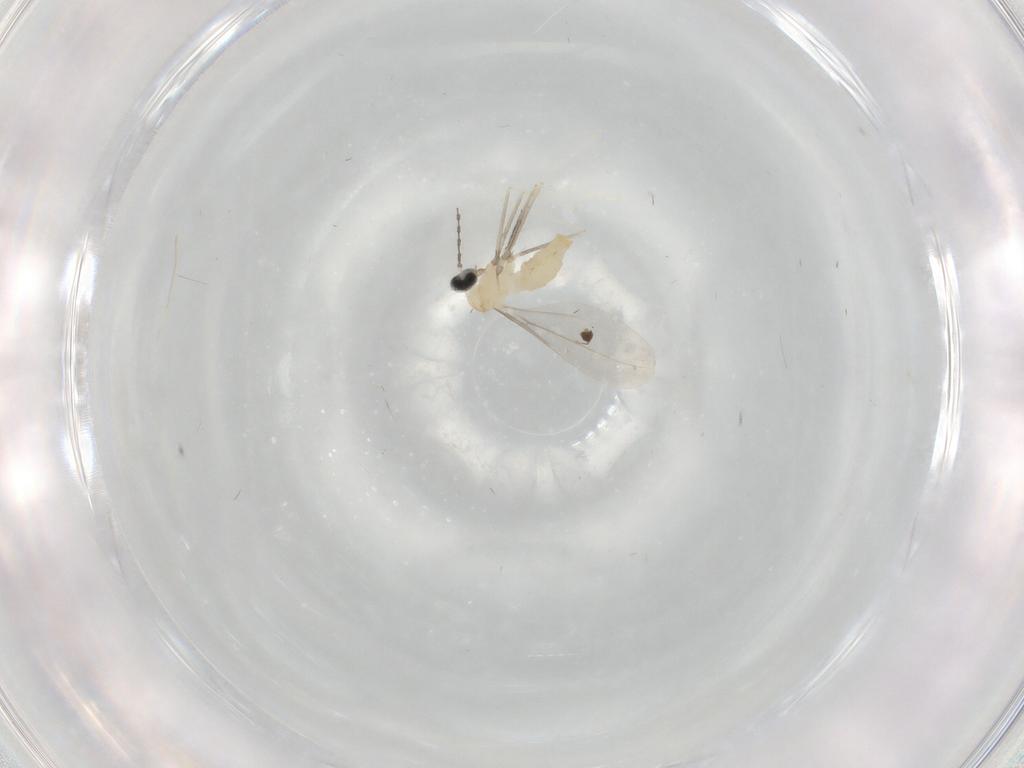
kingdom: Animalia
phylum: Arthropoda
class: Insecta
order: Diptera
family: Cecidomyiidae
